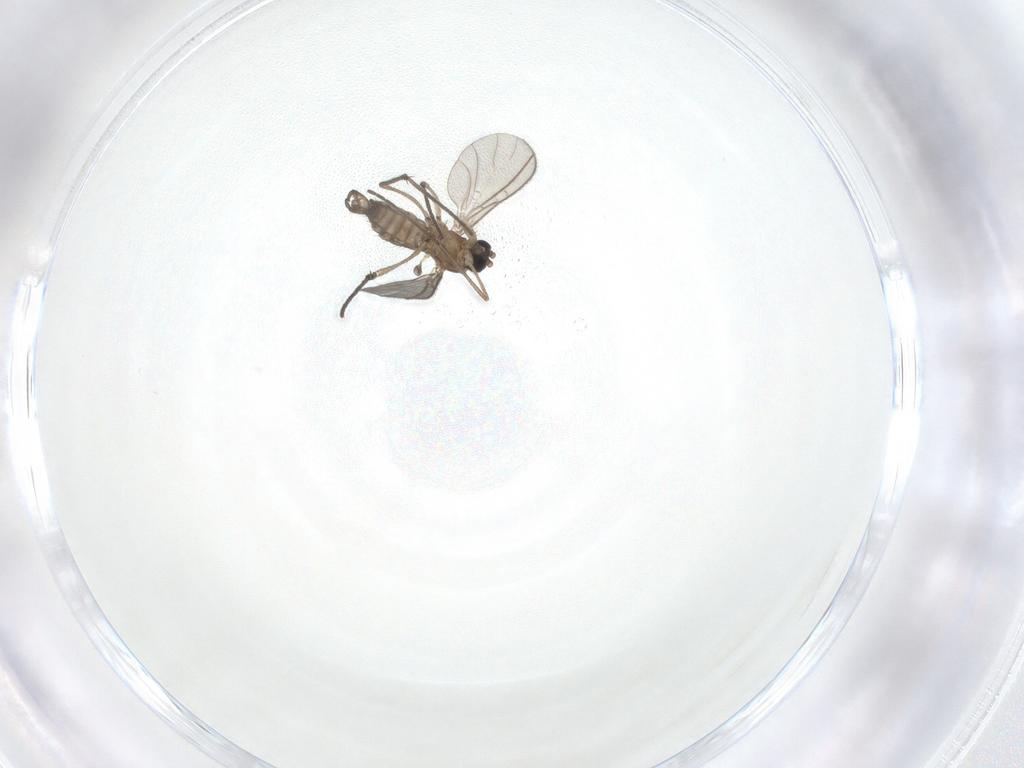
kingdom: Animalia
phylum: Arthropoda
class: Insecta
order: Diptera
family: Sciaridae
